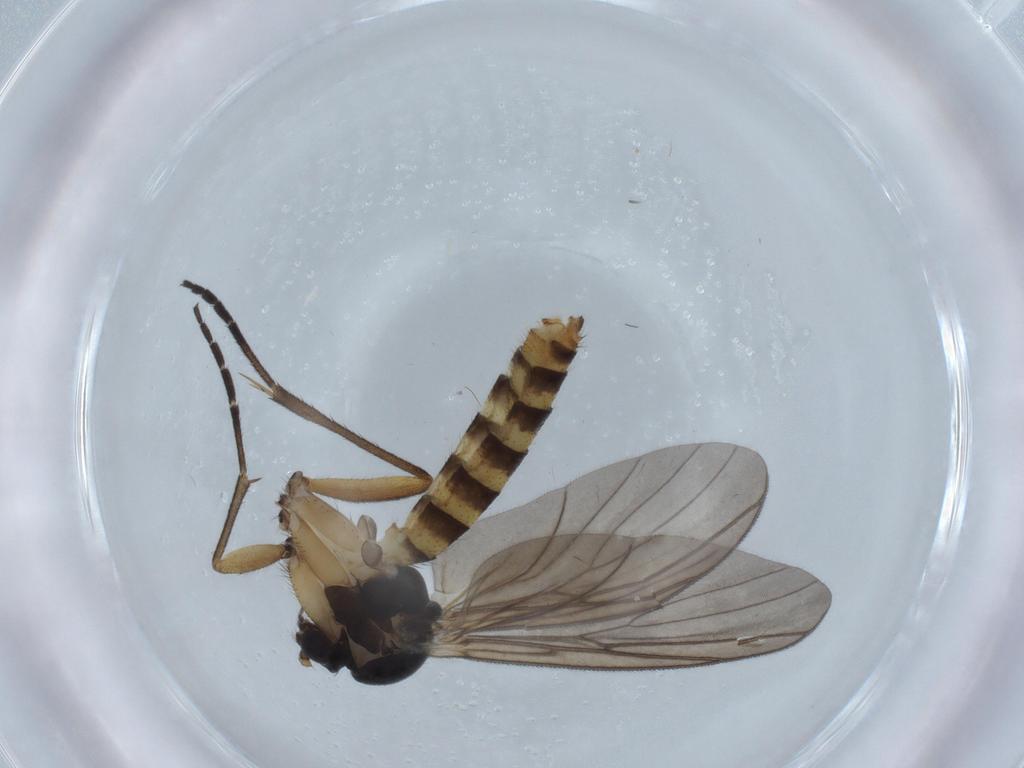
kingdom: Animalia
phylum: Arthropoda
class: Insecta
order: Diptera
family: Mycetophilidae
